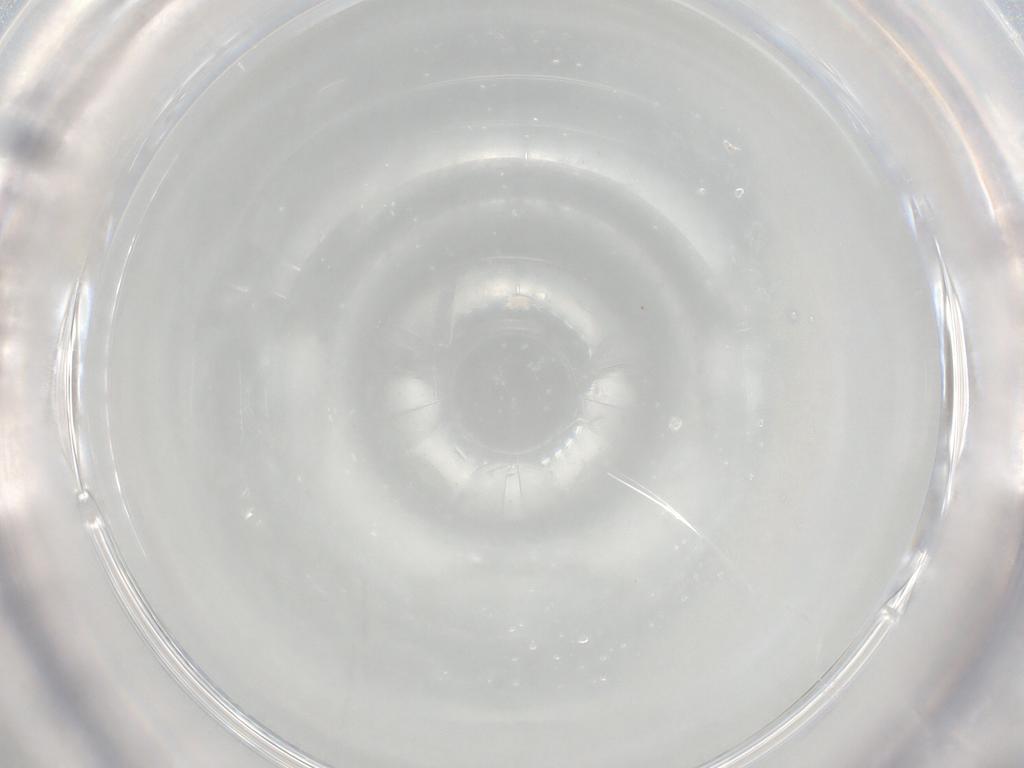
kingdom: Animalia
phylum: Arthropoda
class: Insecta
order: Diptera
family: Cecidomyiidae
